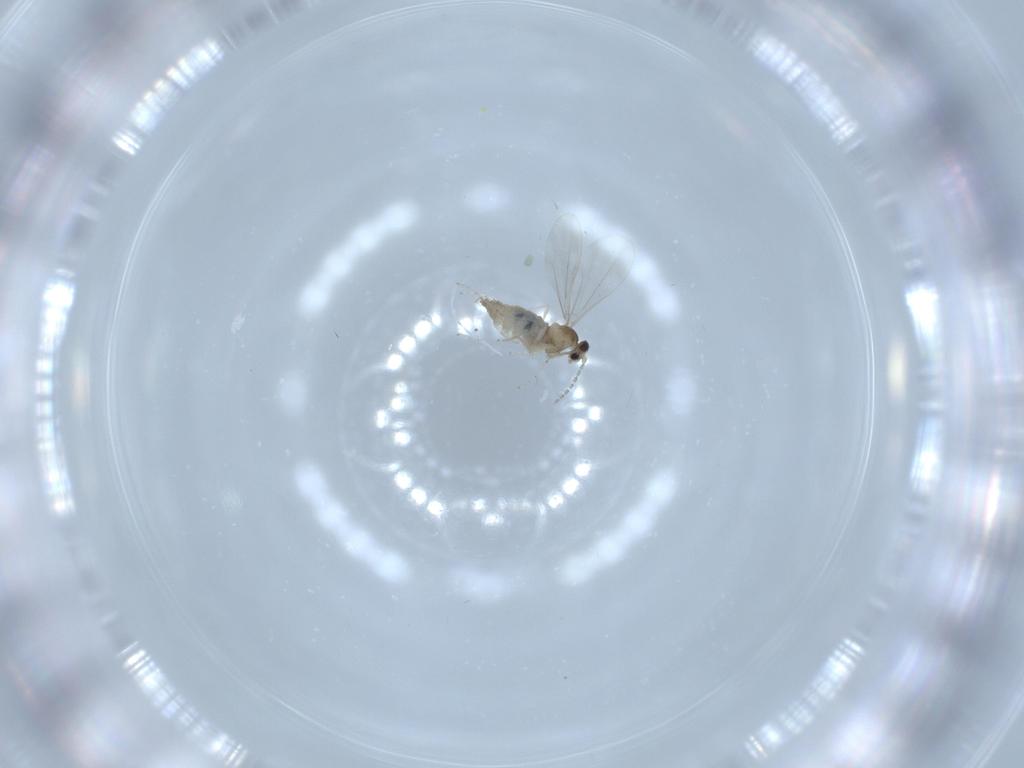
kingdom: Animalia
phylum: Arthropoda
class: Insecta
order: Diptera
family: Cecidomyiidae
